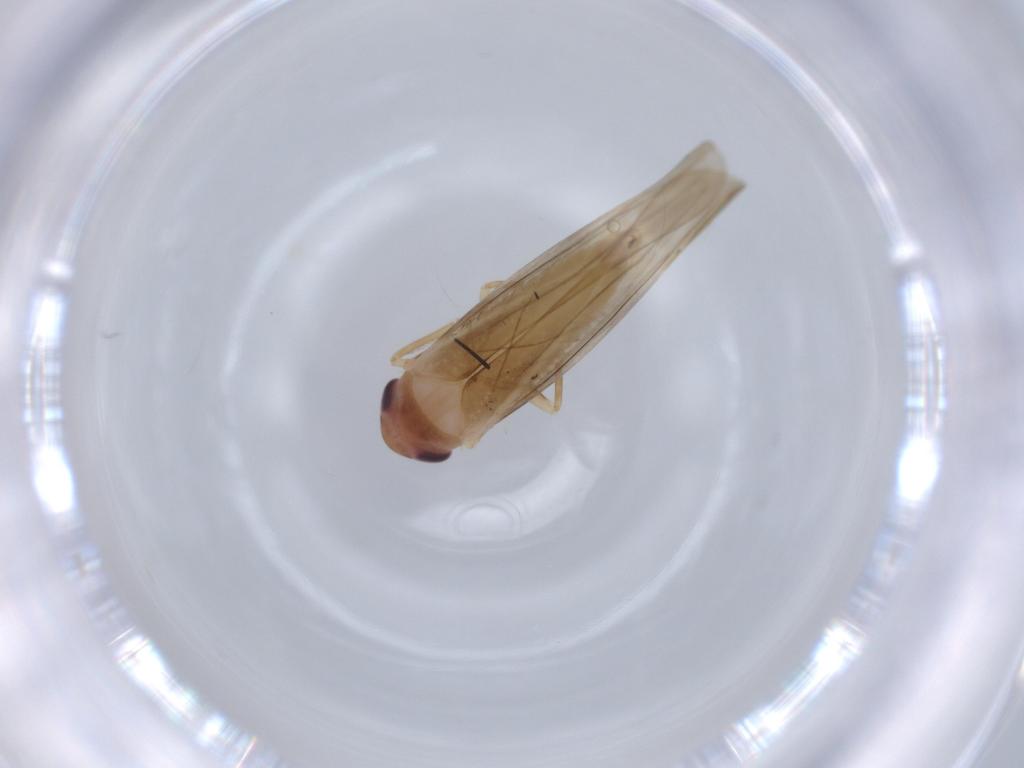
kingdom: Animalia
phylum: Arthropoda
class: Insecta
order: Hemiptera
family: Cicadellidae
